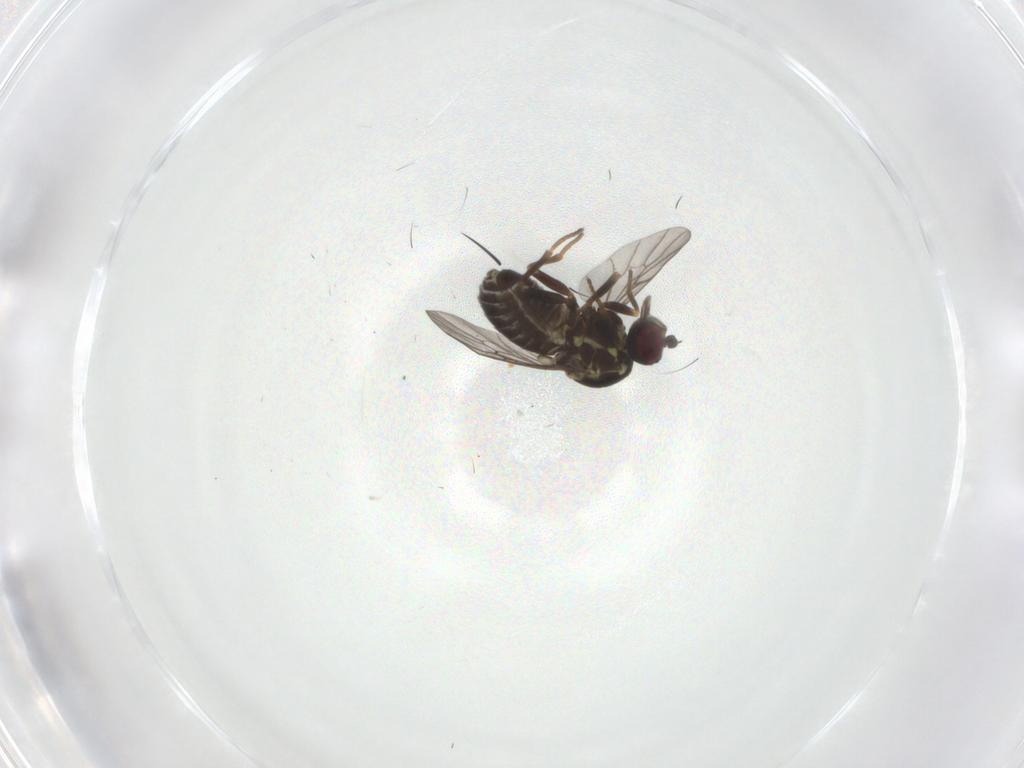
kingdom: Animalia
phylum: Arthropoda
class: Insecta
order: Diptera
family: Bombyliidae
